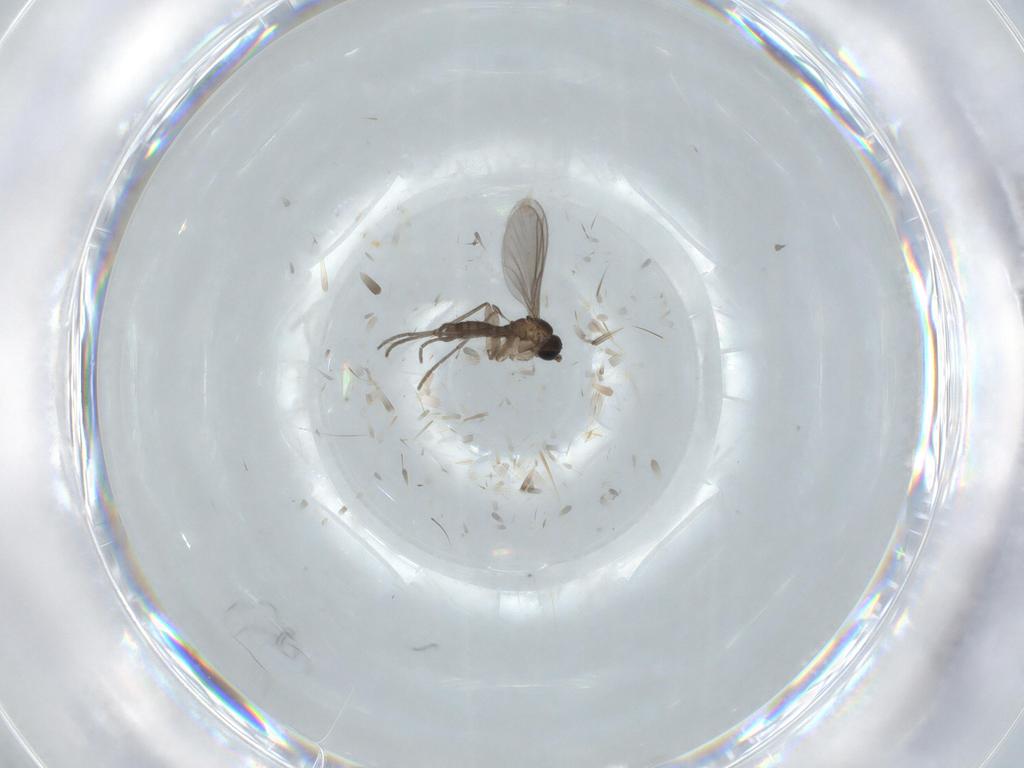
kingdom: Animalia
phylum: Arthropoda
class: Insecta
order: Diptera
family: Sciaridae
